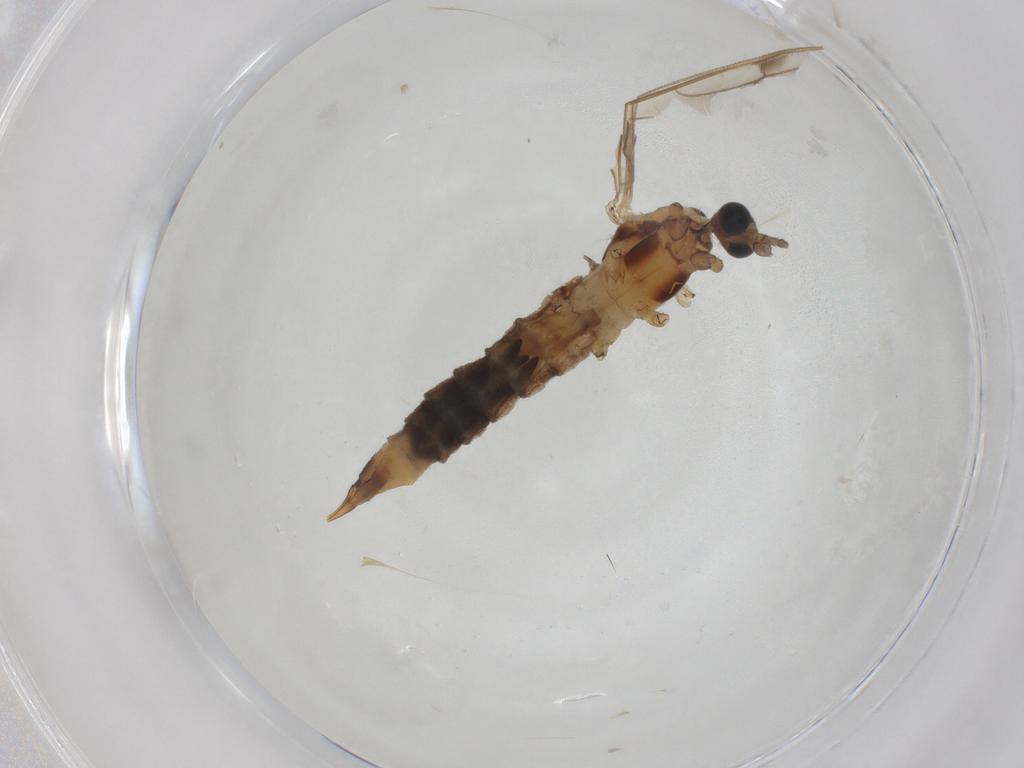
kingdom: Animalia
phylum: Arthropoda
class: Insecta
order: Diptera
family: Limoniidae
